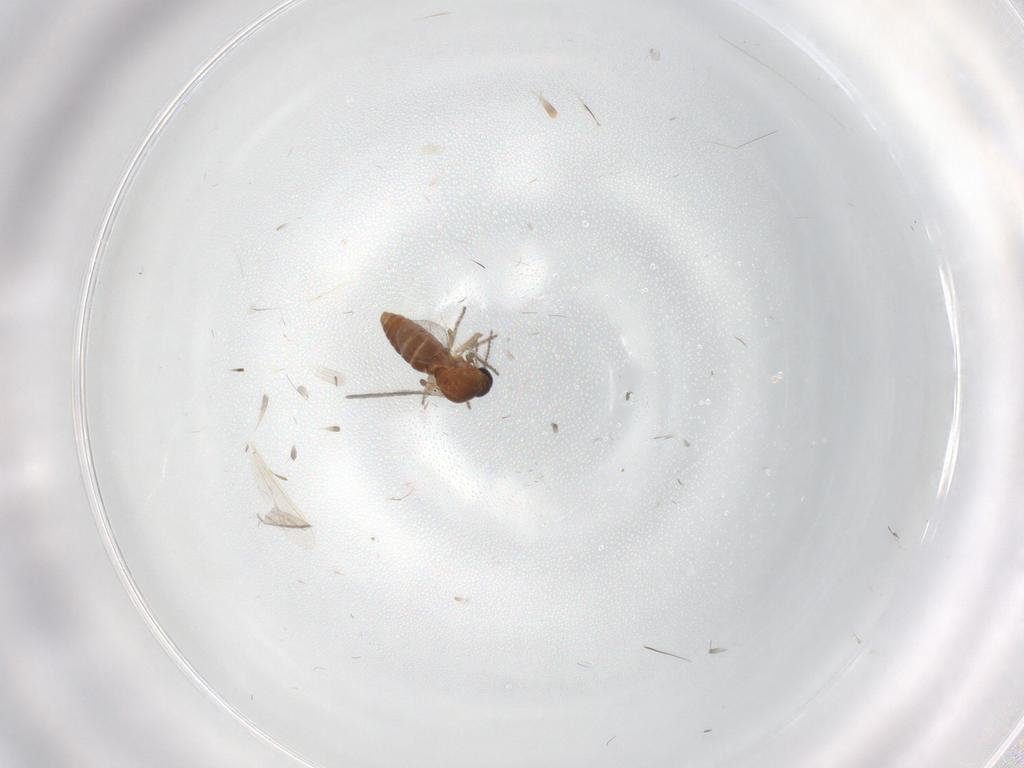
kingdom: Animalia
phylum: Arthropoda
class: Insecta
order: Diptera
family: Ceratopogonidae
